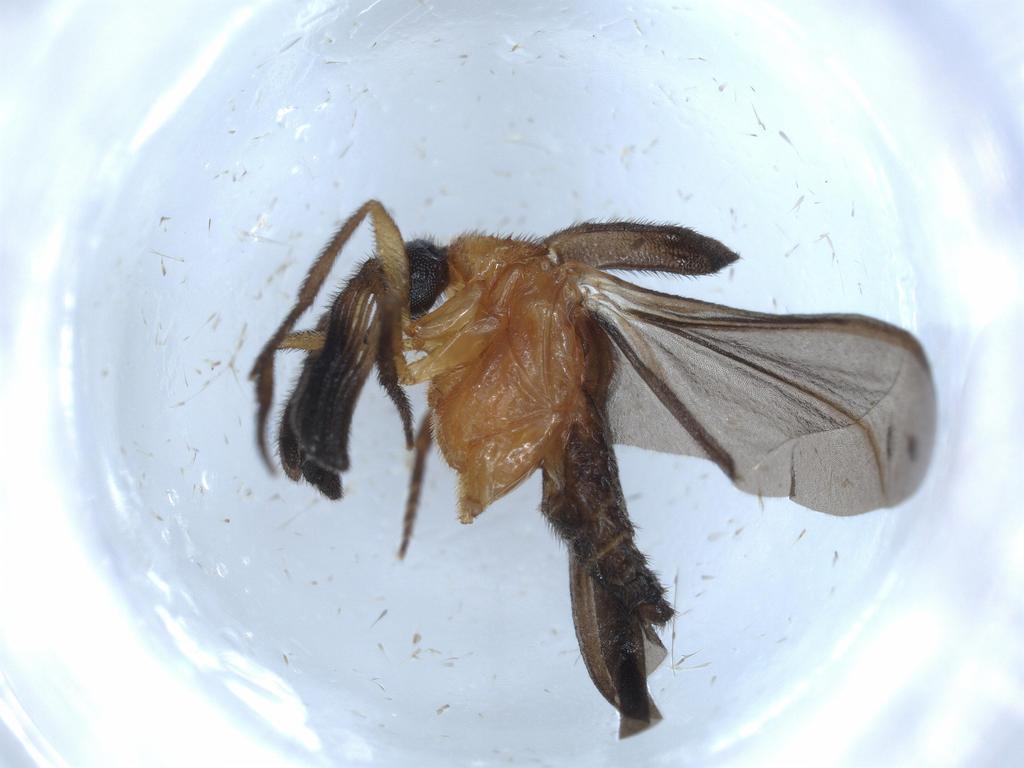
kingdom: Animalia
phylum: Arthropoda
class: Insecta
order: Coleoptera
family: Ripiphoridae
